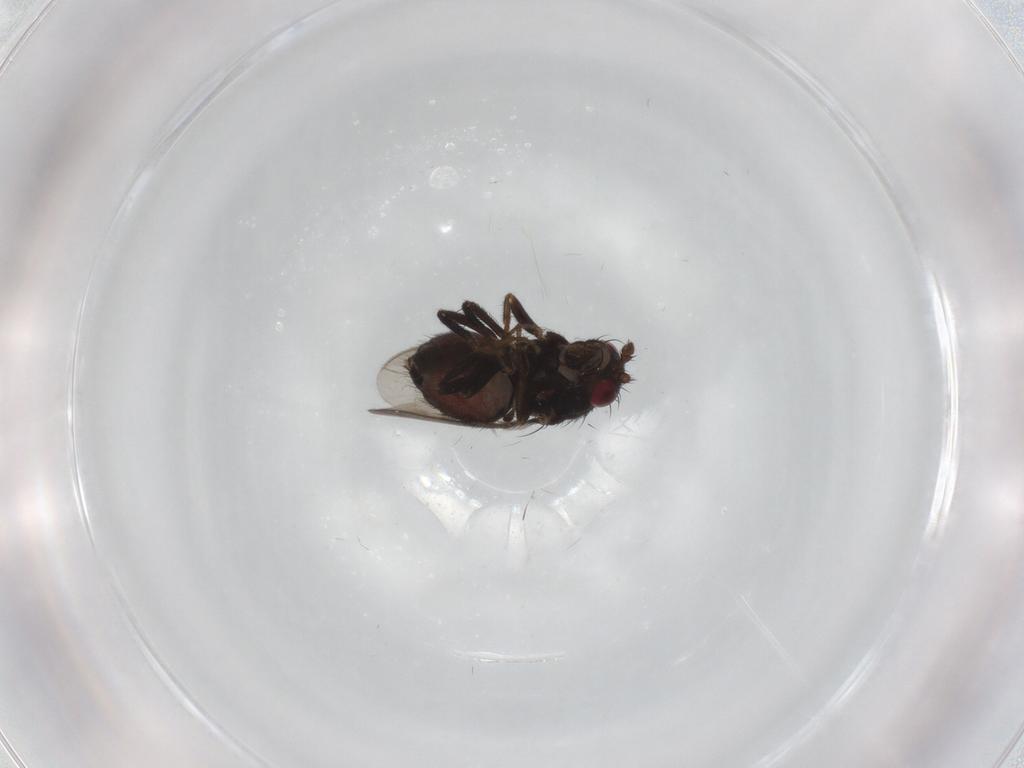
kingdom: Animalia
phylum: Arthropoda
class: Insecta
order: Diptera
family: Sphaeroceridae
